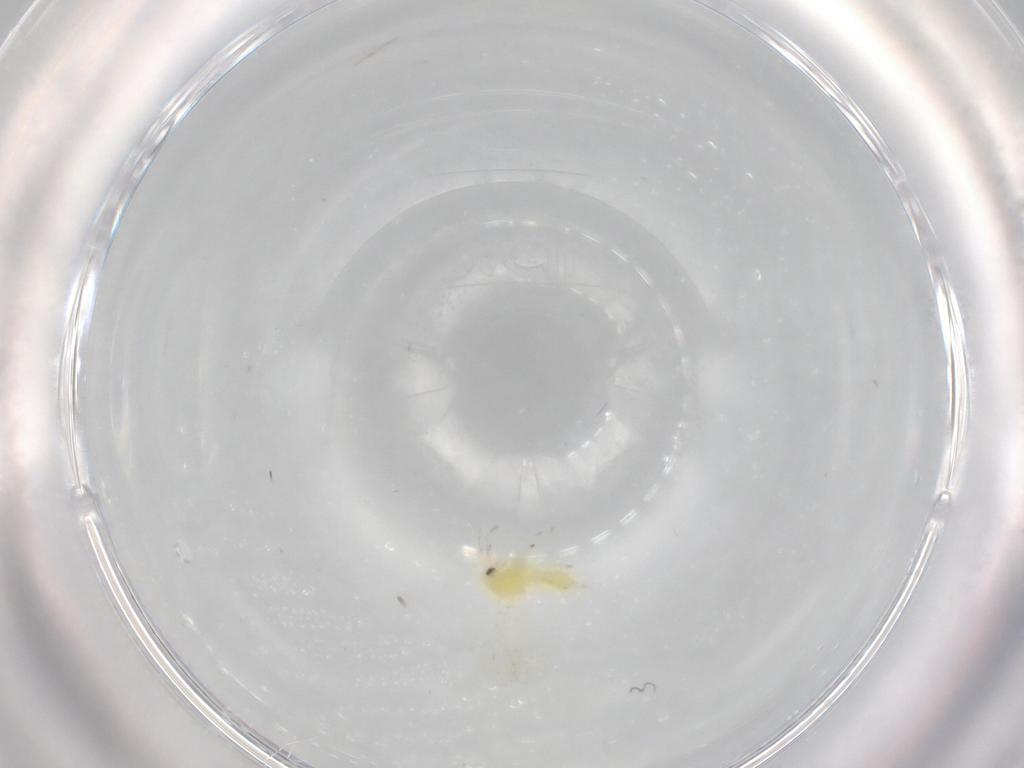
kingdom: Animalia
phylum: Arthropoda
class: Insecta
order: Hemiptera
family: Aleyrodidae
